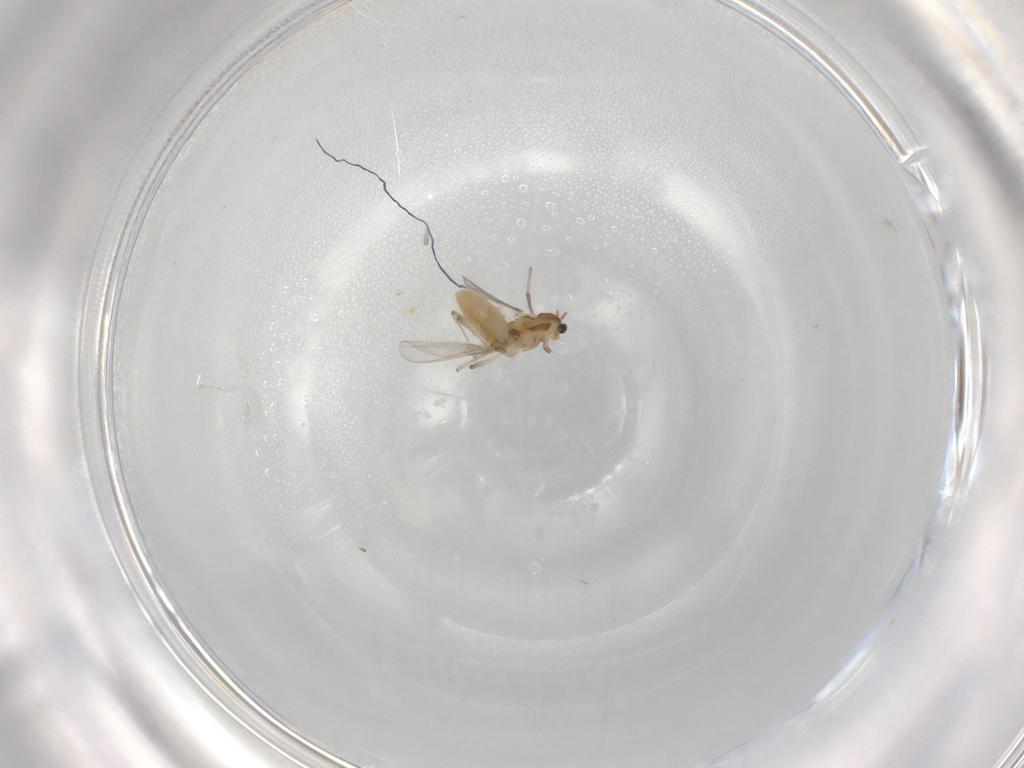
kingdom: Animalia
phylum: Arthropoda
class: Insecta
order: Diptera
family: Chironomidae
